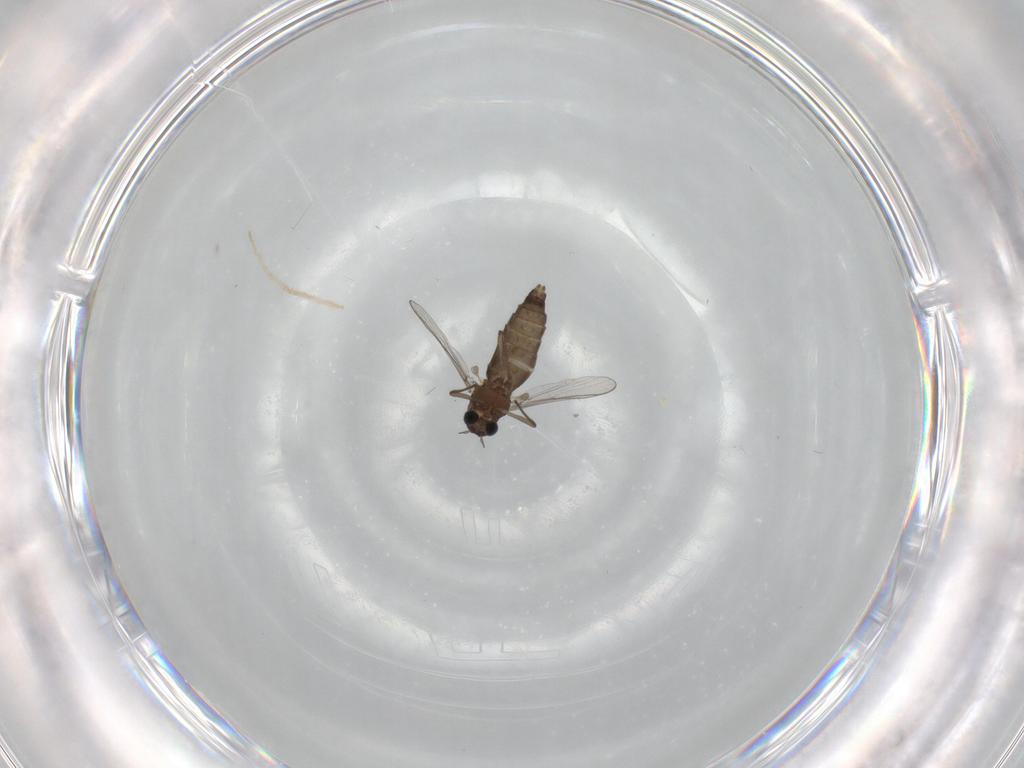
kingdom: Animalia
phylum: Arthropoda
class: Insecta
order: Diptera
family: Chironomidae
